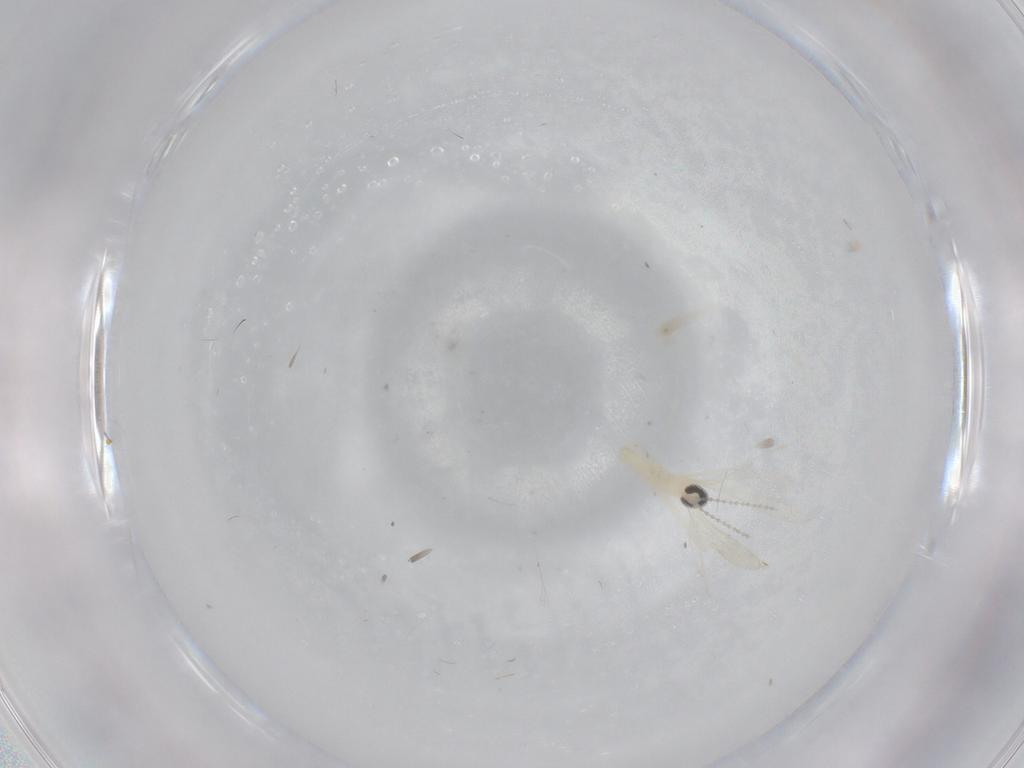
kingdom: Animalia
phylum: Arthropoda
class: Insecta
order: Diptera
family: Cecidomyiidae
